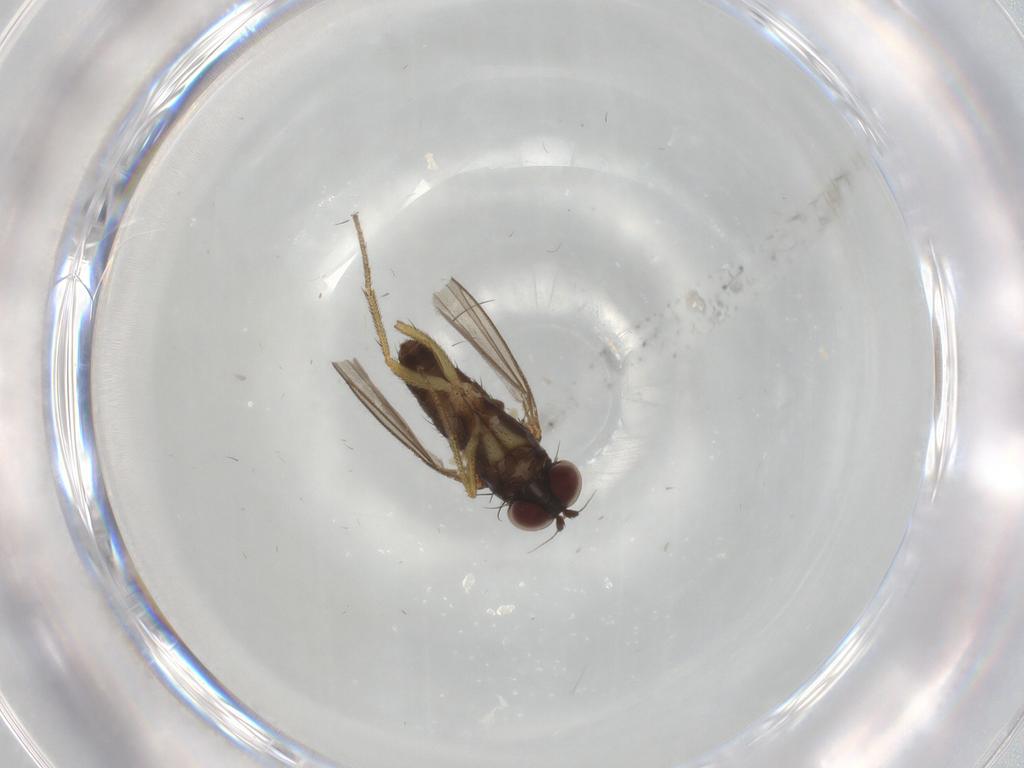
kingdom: Animalia
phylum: Arthropoda
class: Insecta
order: Diptera
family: Dolichopodidae
